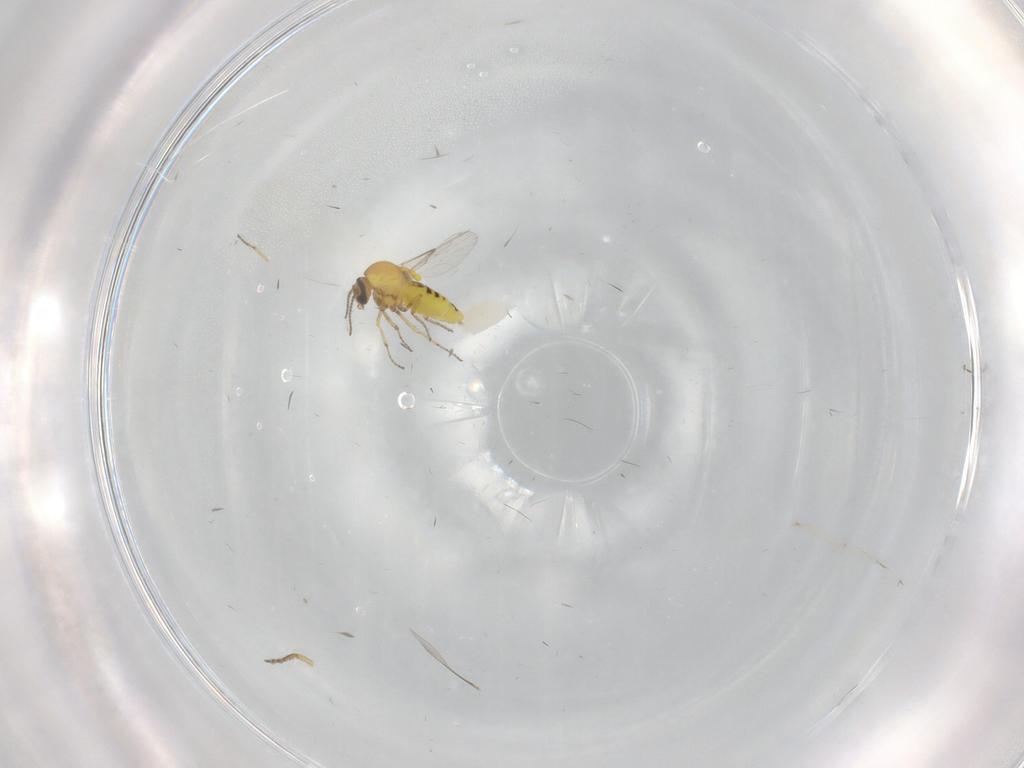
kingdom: Animalia
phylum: Arthropoda
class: Insecta
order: Diptera
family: Ceratopogonidae
